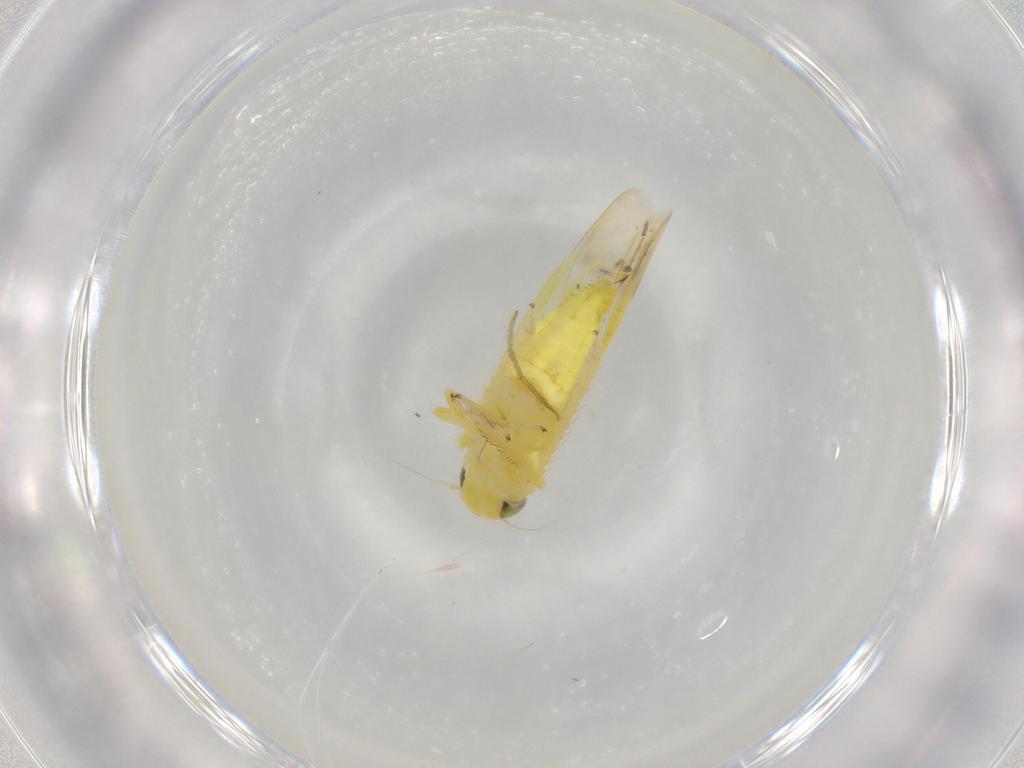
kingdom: Animalia
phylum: Arthropoda
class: Insecta
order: Hemiptera
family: Cicadellidae
